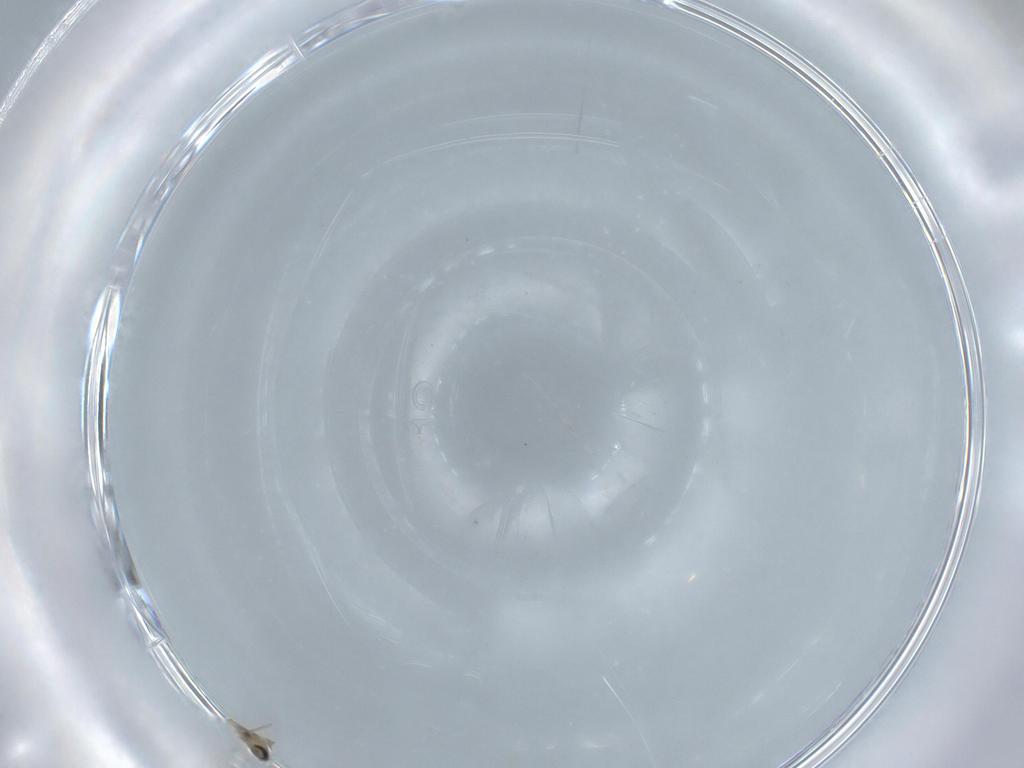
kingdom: Animalia
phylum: Arthropoda
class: Insecta
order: Diptera
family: Cecidomyiidae
